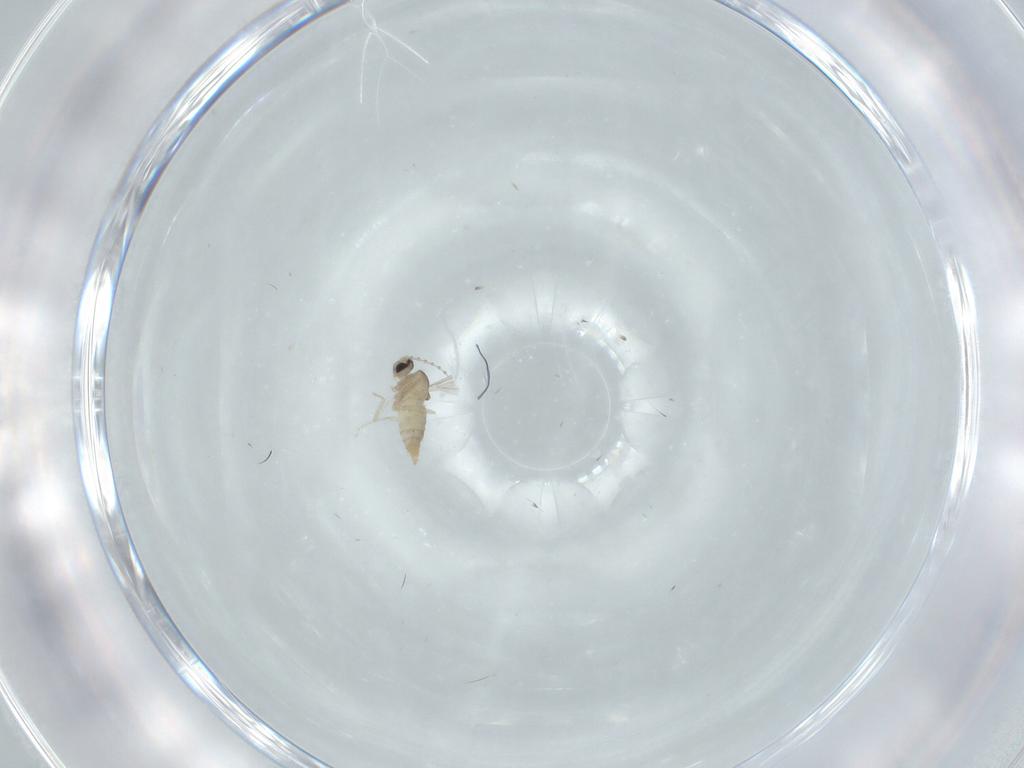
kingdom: Animalia
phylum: Arthropoda
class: Insecta
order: Diptera
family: Cecidomyiidae
